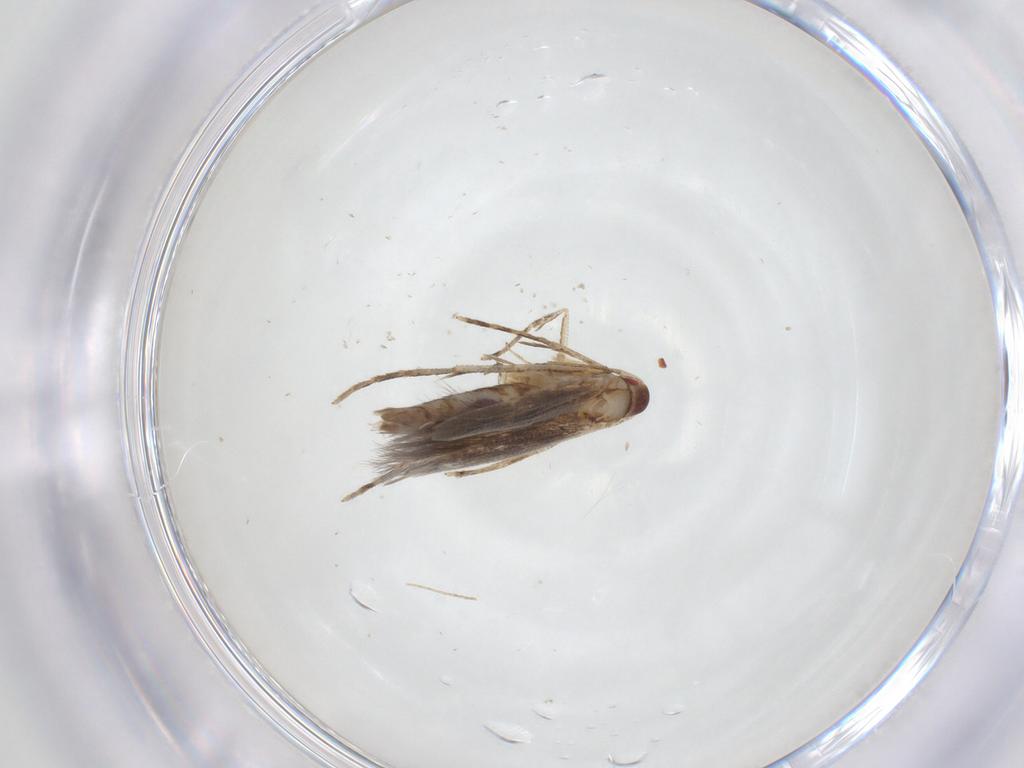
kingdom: Animalia
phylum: Arthropoda
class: Insecta
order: Lepidoptera
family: Cosmopterigidae
